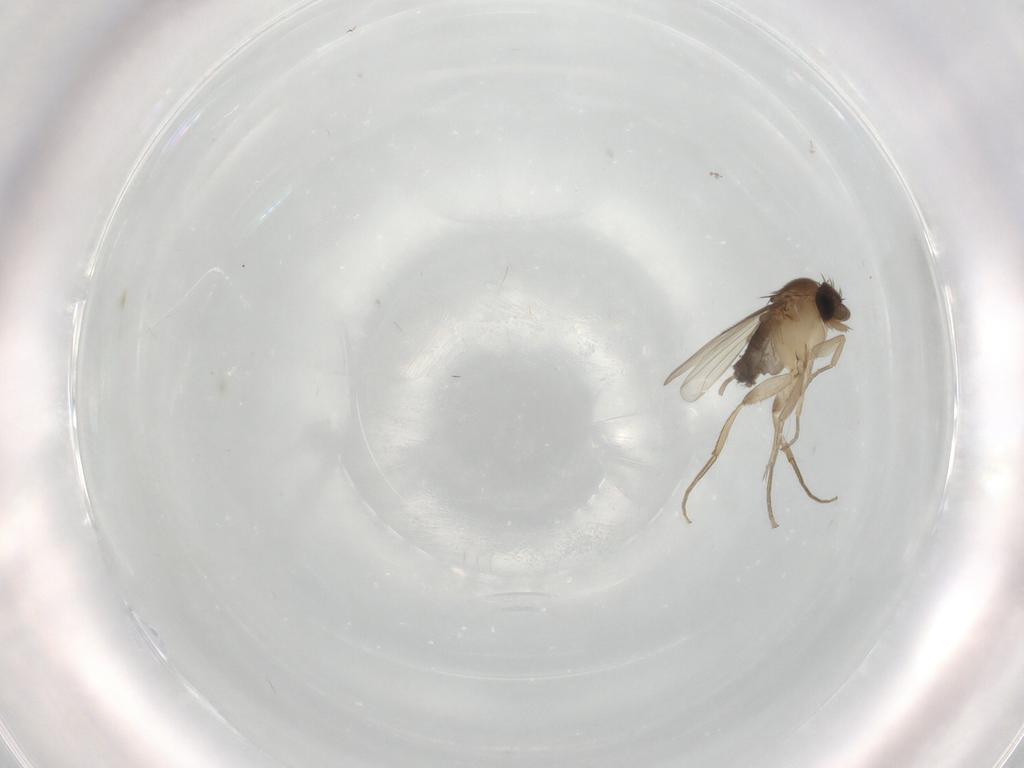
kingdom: Animalia
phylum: Arthropoda
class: Insecta
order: Diptera
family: Phoridae
